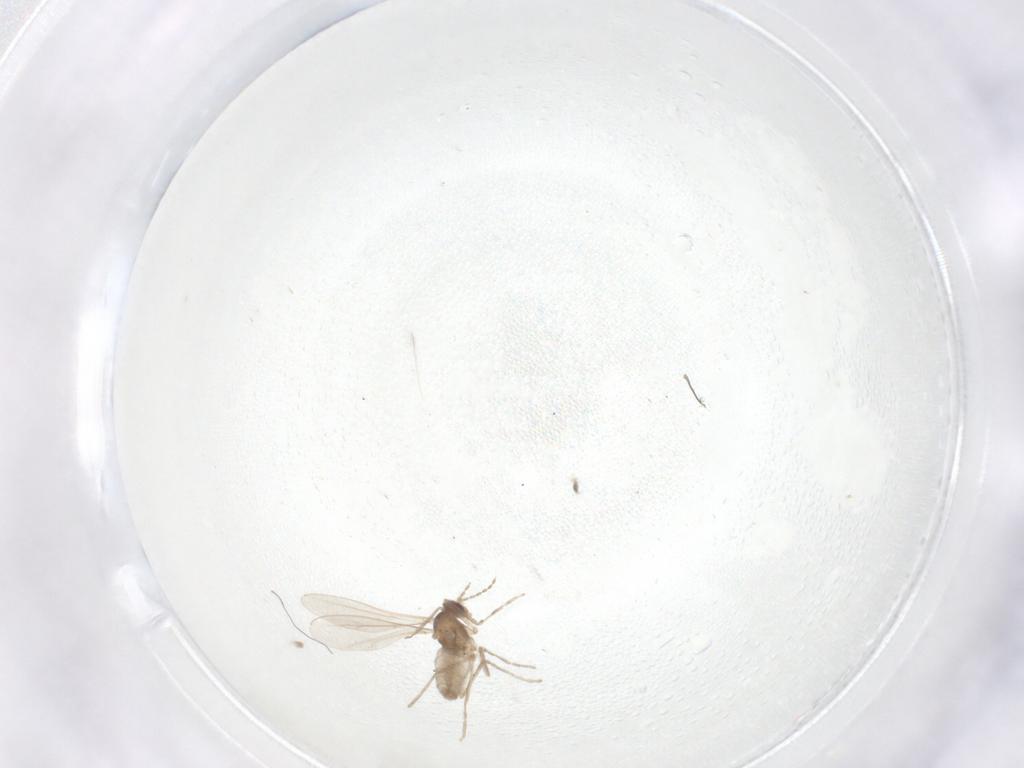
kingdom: Animalia
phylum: Arthropoda
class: Insecta
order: Diptera
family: Cecidomyiidae
